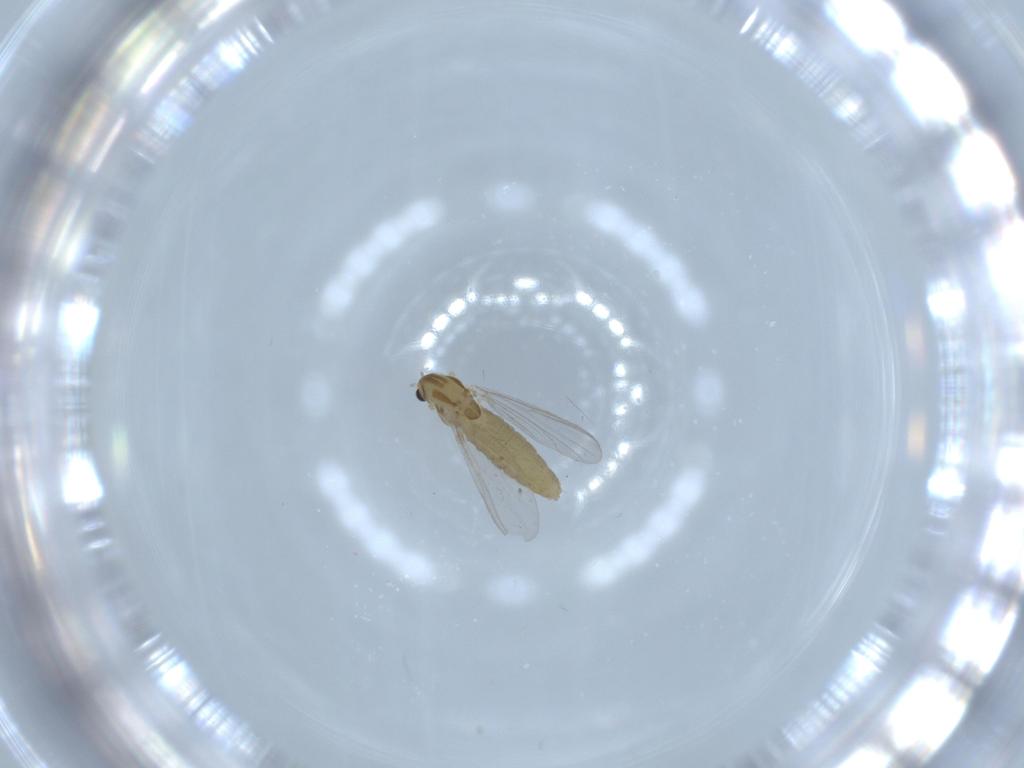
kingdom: Animalia
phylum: Arthropoda
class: Insecta
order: Diptera
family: Chironomidae
